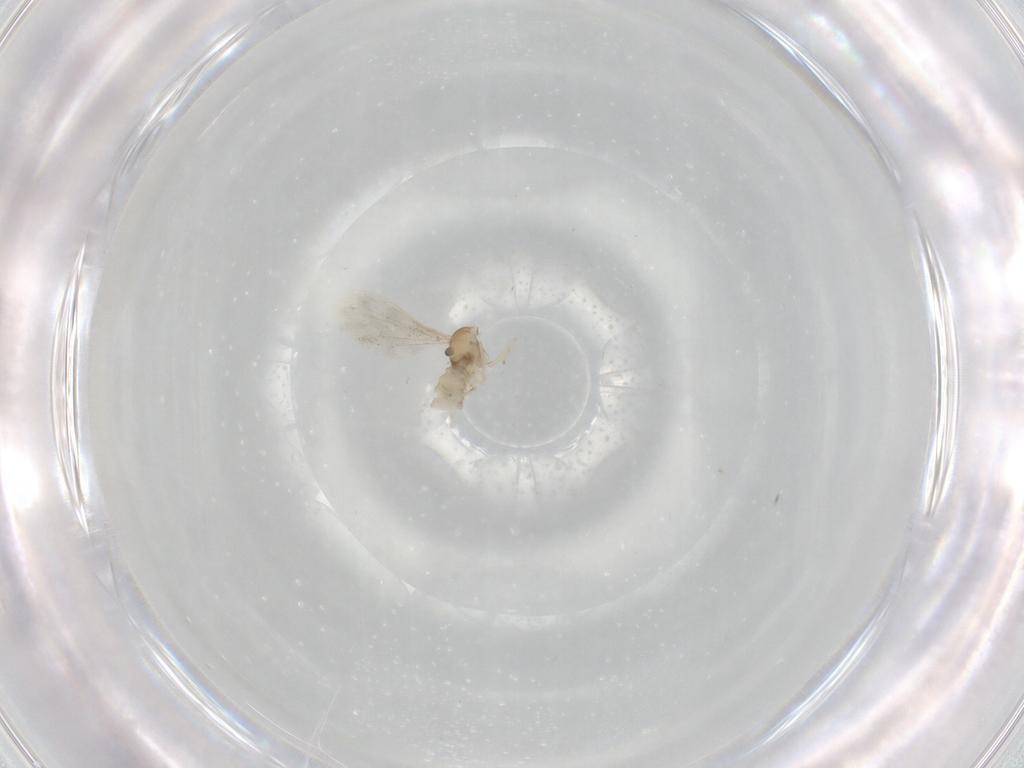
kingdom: Animalia
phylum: Arthropoda
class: Insecta
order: Diptera
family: Cecidomyiidae
